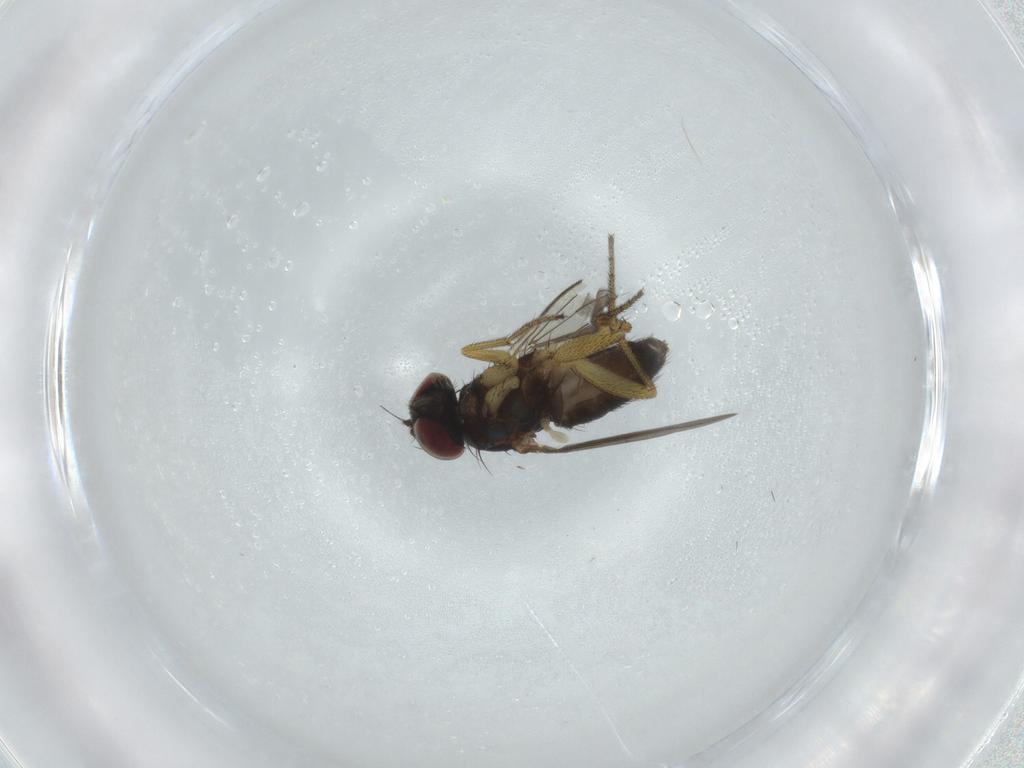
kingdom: Animalia
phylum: Arthropoda
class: Insecta
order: Diptera
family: Dolichopodidae
